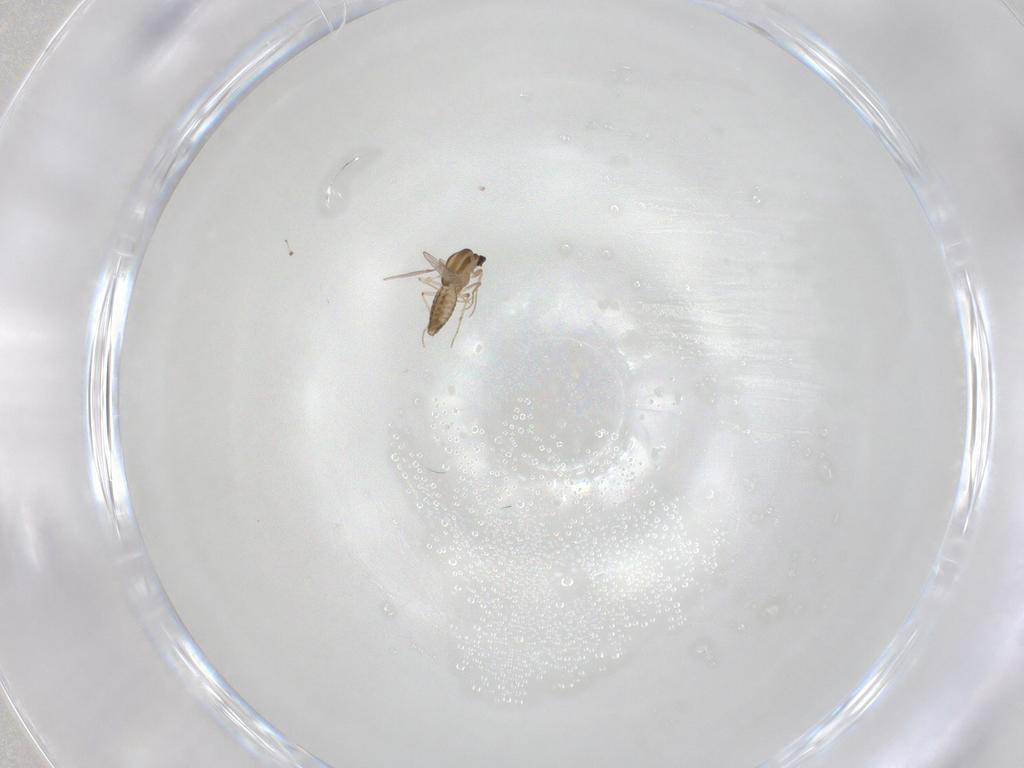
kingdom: Animalia
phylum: Arthropoda
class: Insecta
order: Diptera
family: Chironomidae
